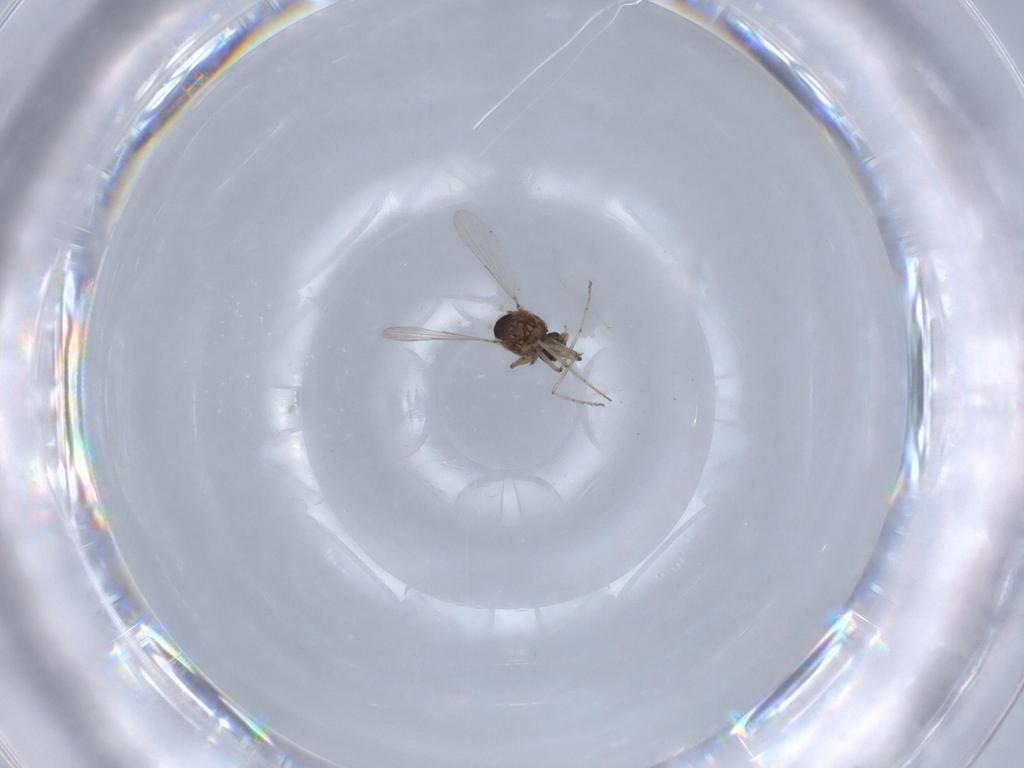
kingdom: Animalia
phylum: Arthropoda
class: Insecta
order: Diptera
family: Ceratopogonidae
